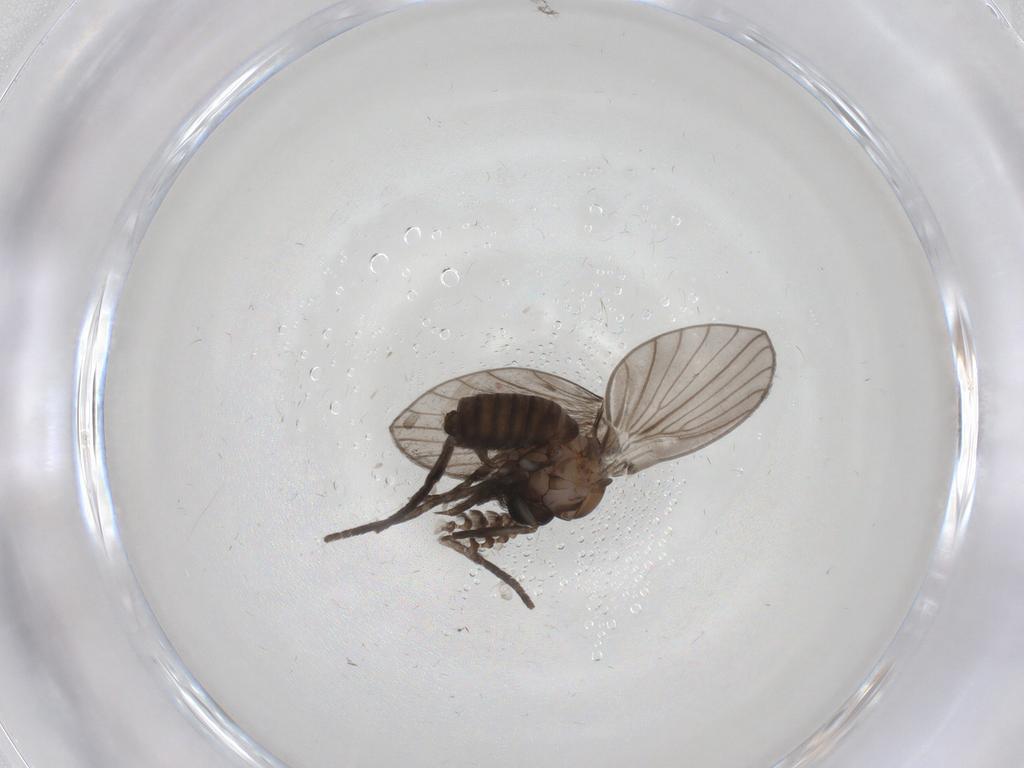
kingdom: Animalia
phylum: Arthropoda
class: Insecta
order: Diptera
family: Psychodidae
